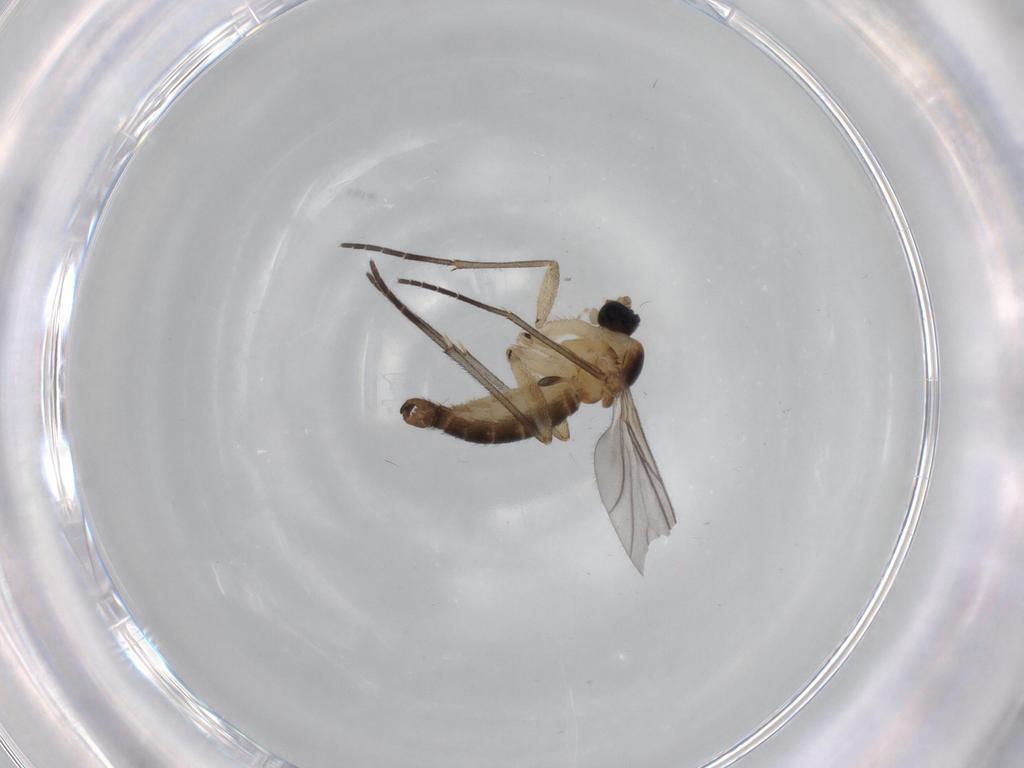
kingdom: Animalia
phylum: Arthropoda
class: Insecta
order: Diptera
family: Sciaridae
